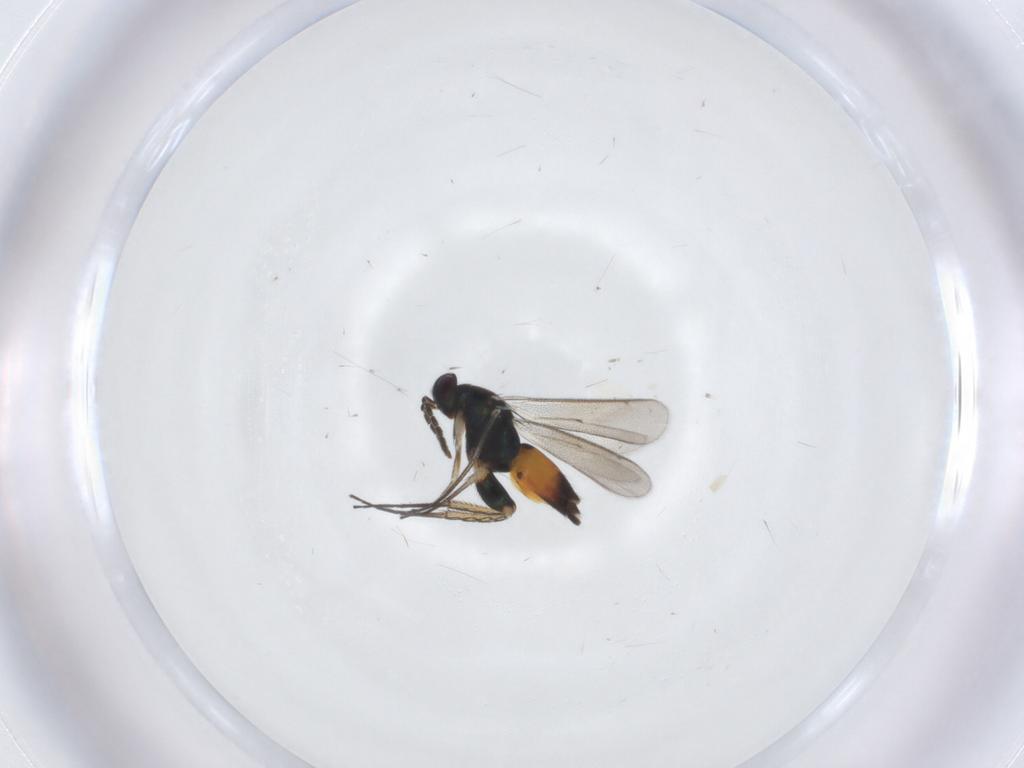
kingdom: Animalia
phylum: Arthropoda
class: Insecta
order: Hymenoptera
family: Eulophidae
